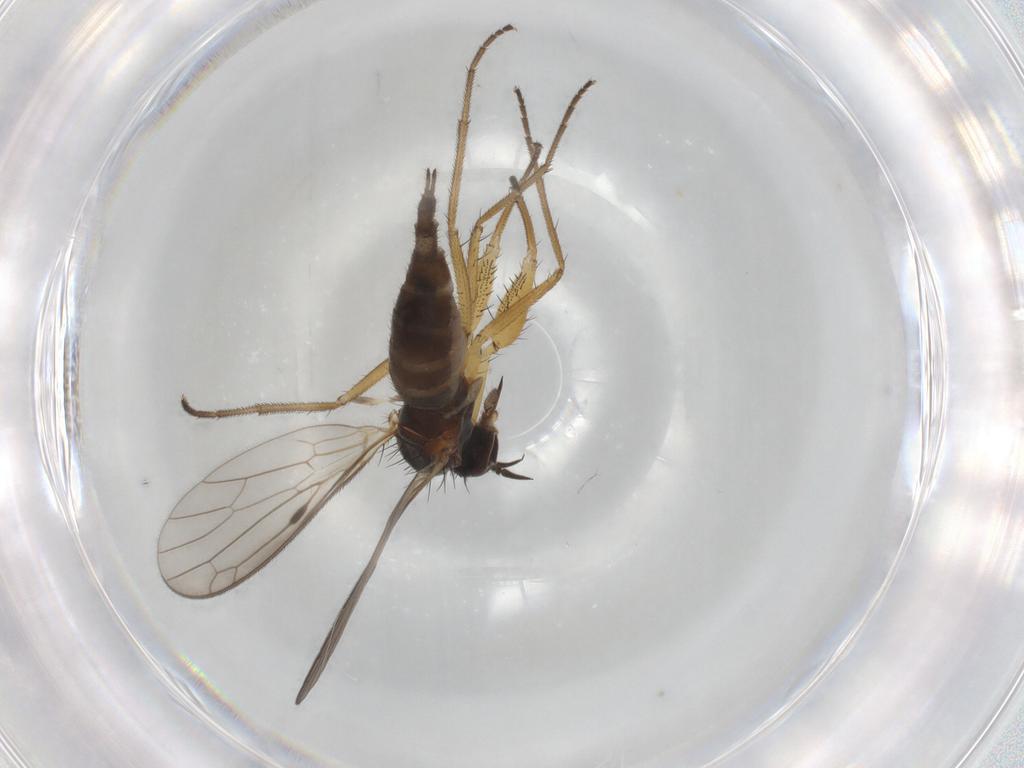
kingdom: Animalia
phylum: Arthropoda
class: Insecta
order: Diptera
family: Chironomidae
